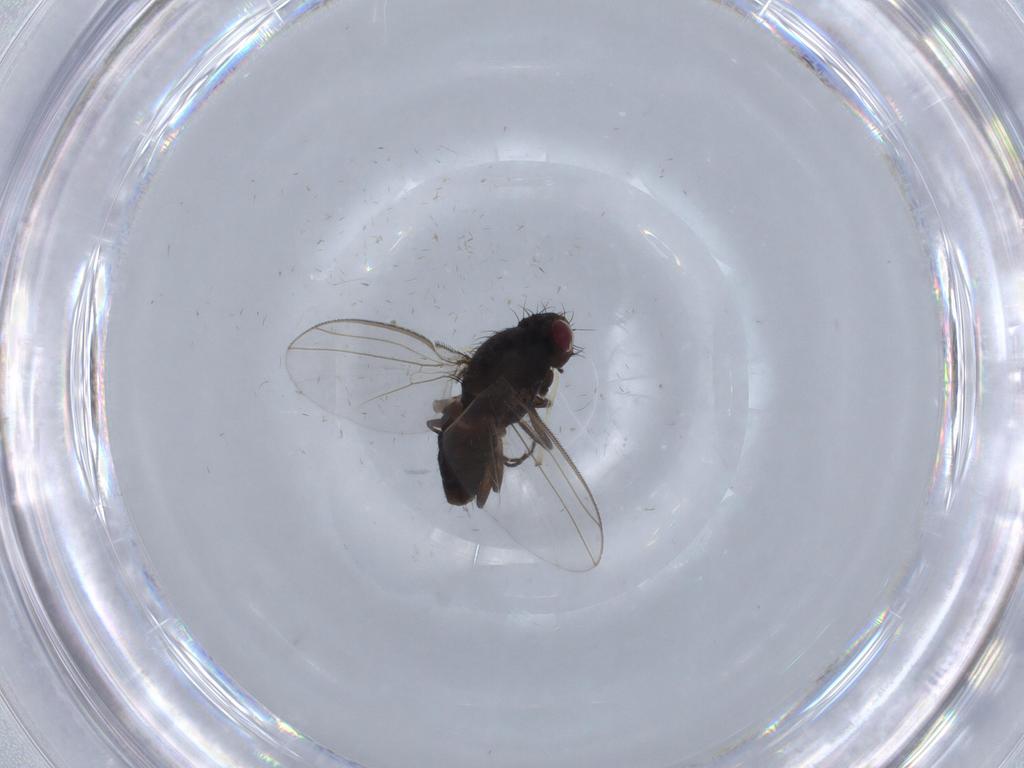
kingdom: Animalia
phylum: Arthropoda
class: Insecta
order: Diptera
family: Carnidae
